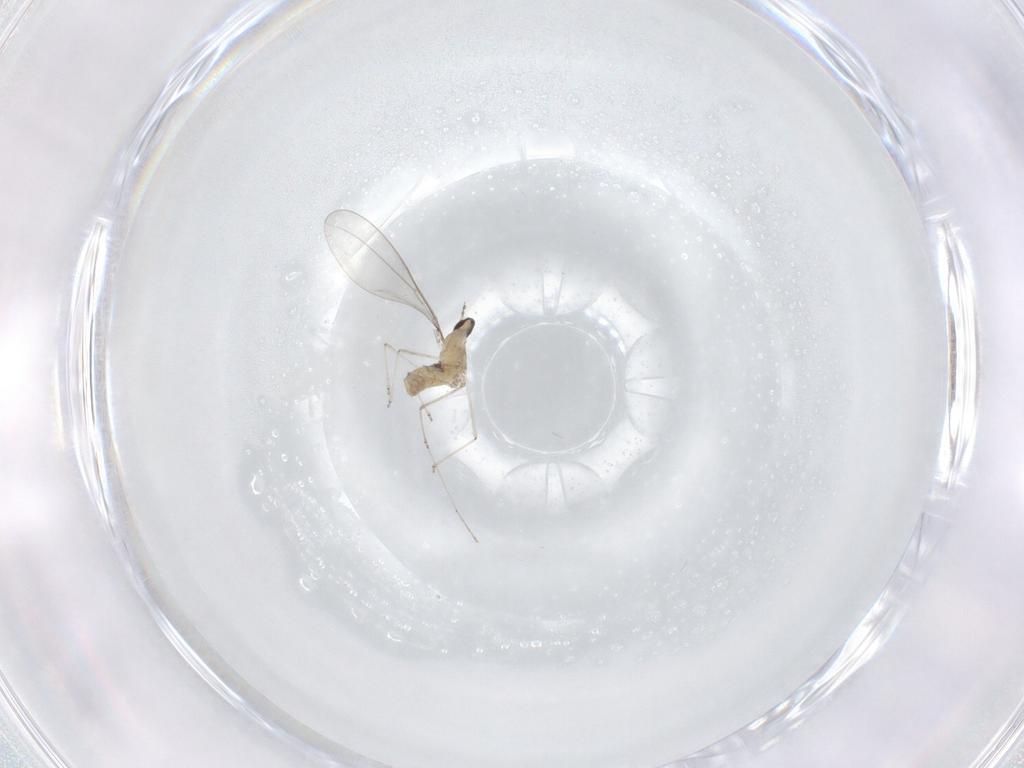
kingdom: Animalia
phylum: Arthropoda
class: Insecta
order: Diptera
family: Cecidomyiidae
